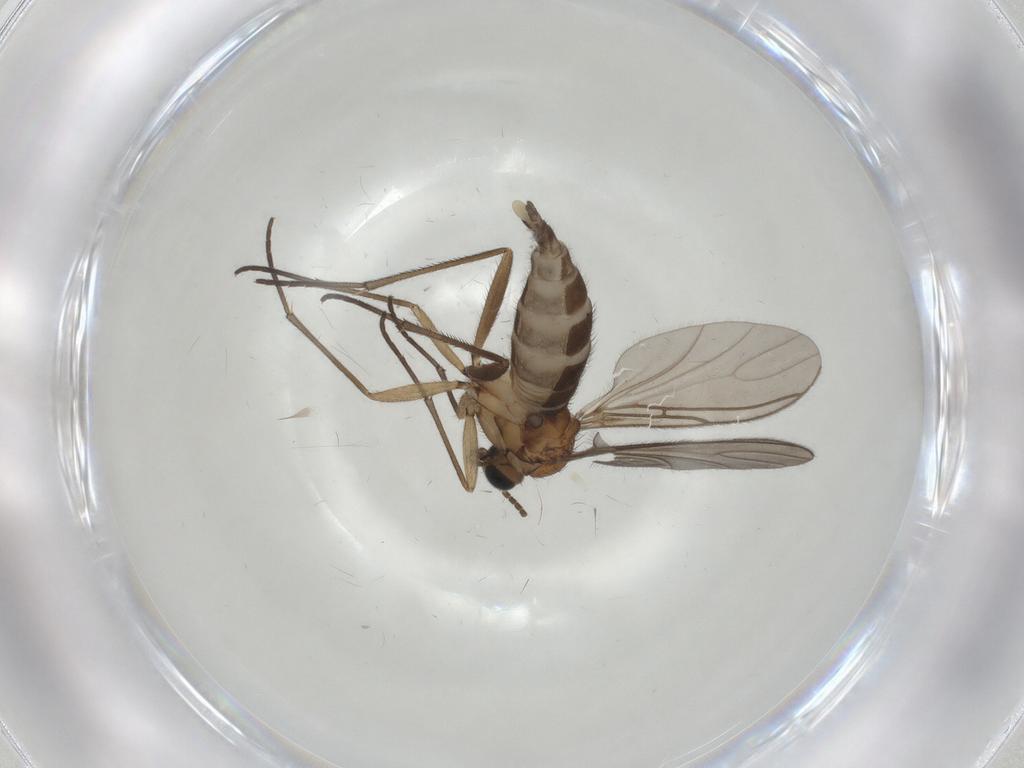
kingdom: Animalia
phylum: Arthropoda
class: Insecta
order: Diptera
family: Sciaridae
